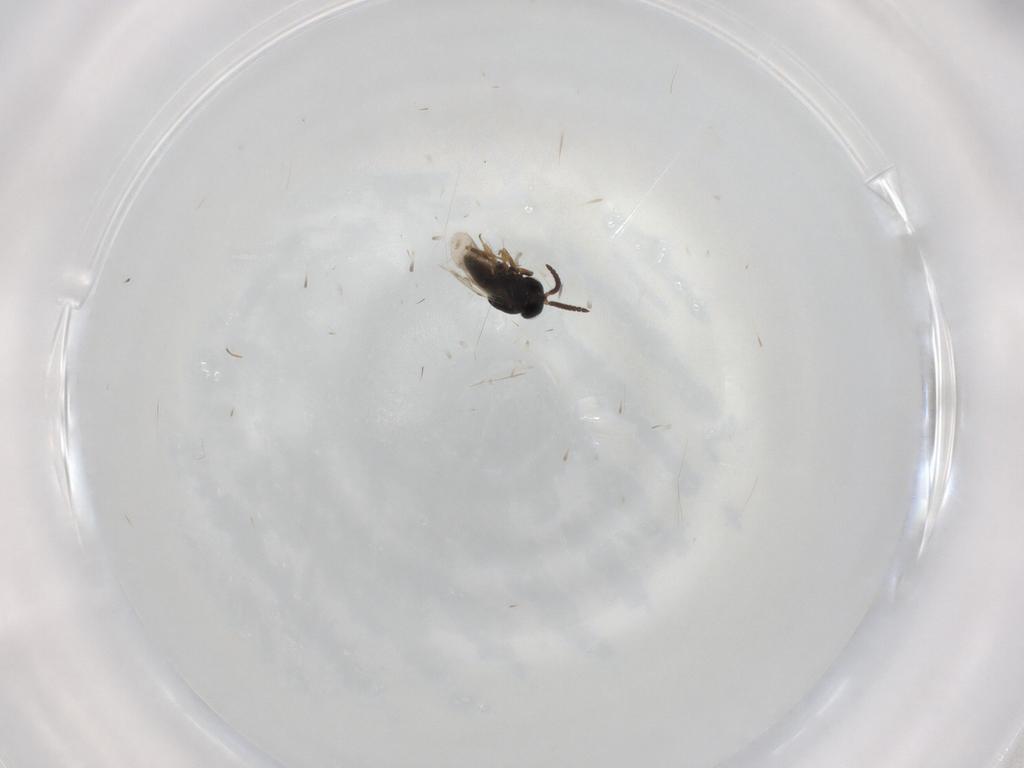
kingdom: Animalia
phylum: Arthropoda
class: Insecta
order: Hymenoptera
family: Scelionidae
